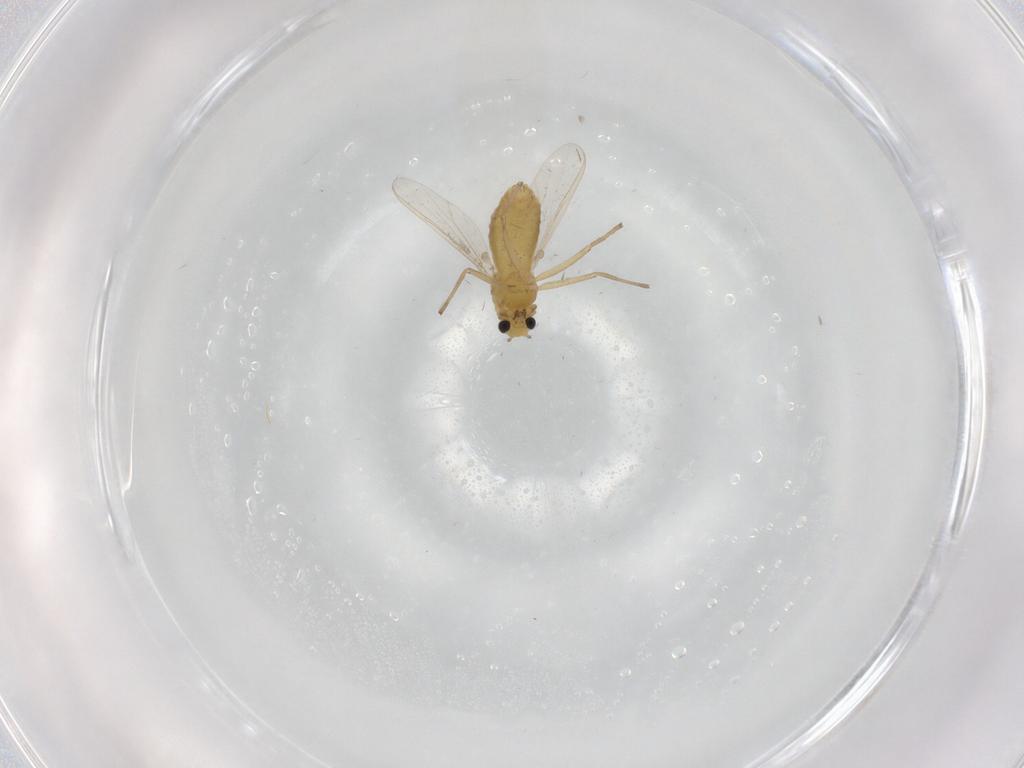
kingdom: Animalia
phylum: Arthropoda
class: Insecta
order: Diptera
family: Chironomidae
